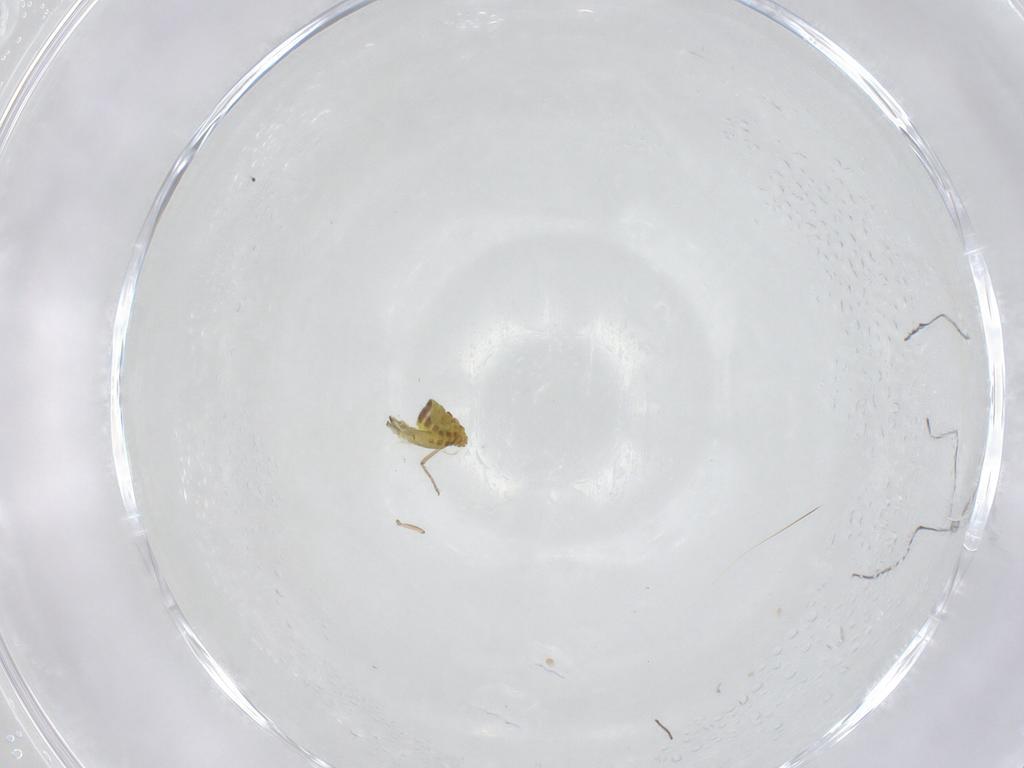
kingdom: Animalia
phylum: Arthropoda
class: Insecta
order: Diptera
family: Ceratopogonidae
